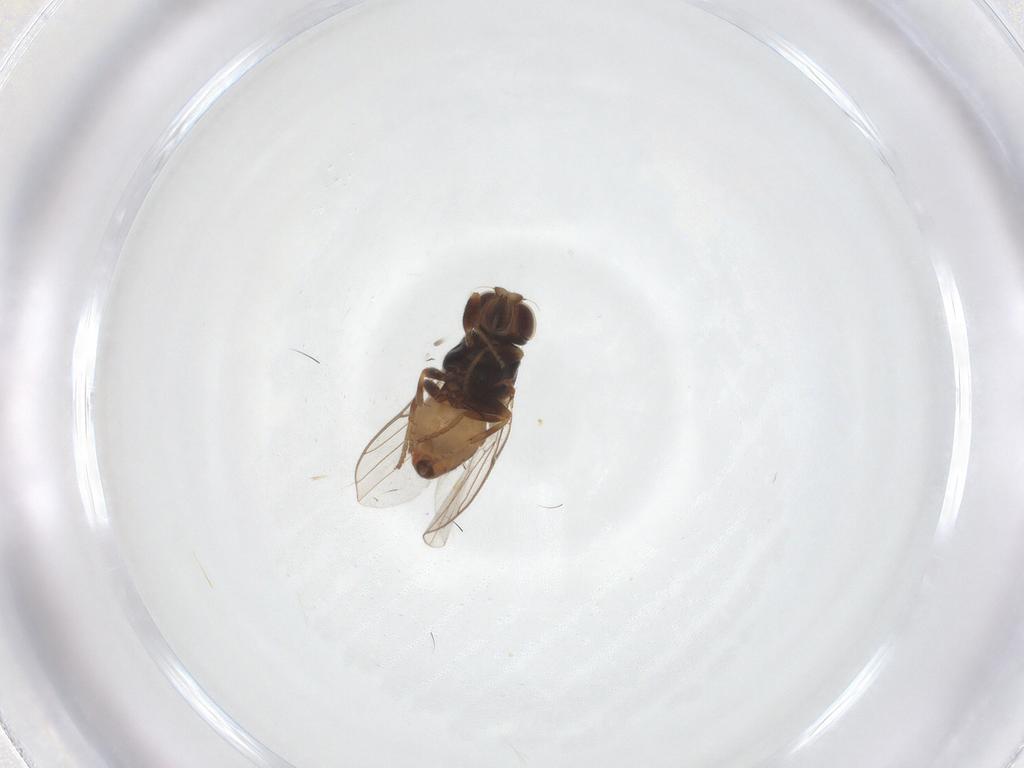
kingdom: Animalia
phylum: Arthropoda
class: Insecta
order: Diptera
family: Chloropidae
